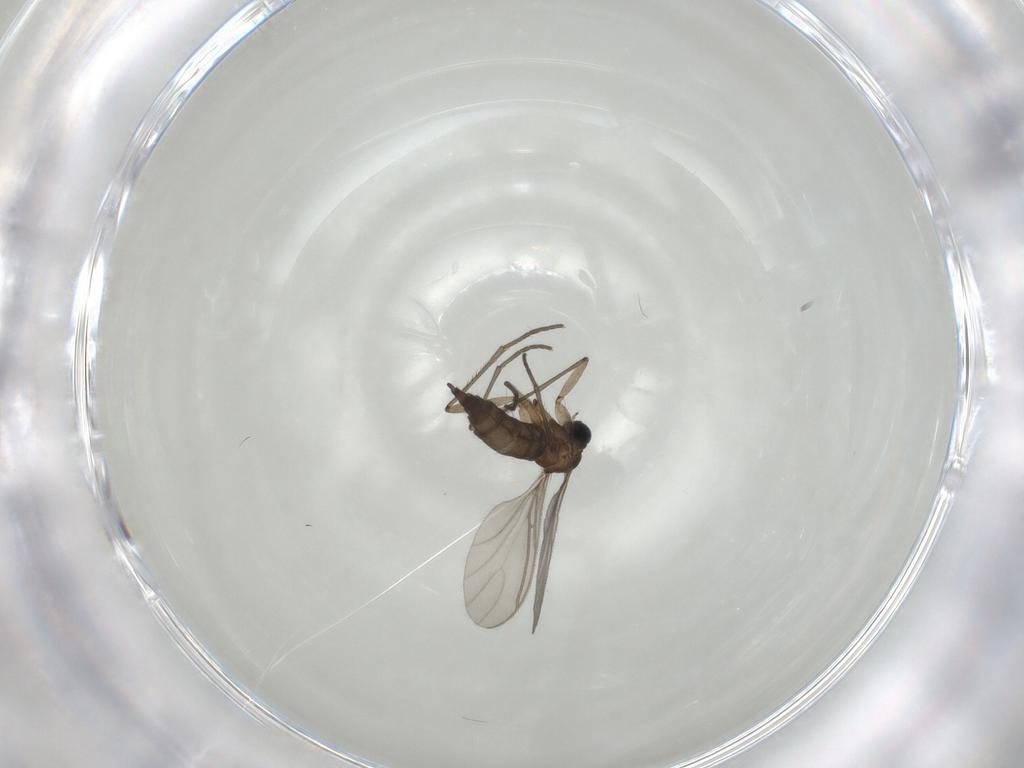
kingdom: Animalia
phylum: Arthropoda
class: Insecta
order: Diptera
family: Chironomidae
